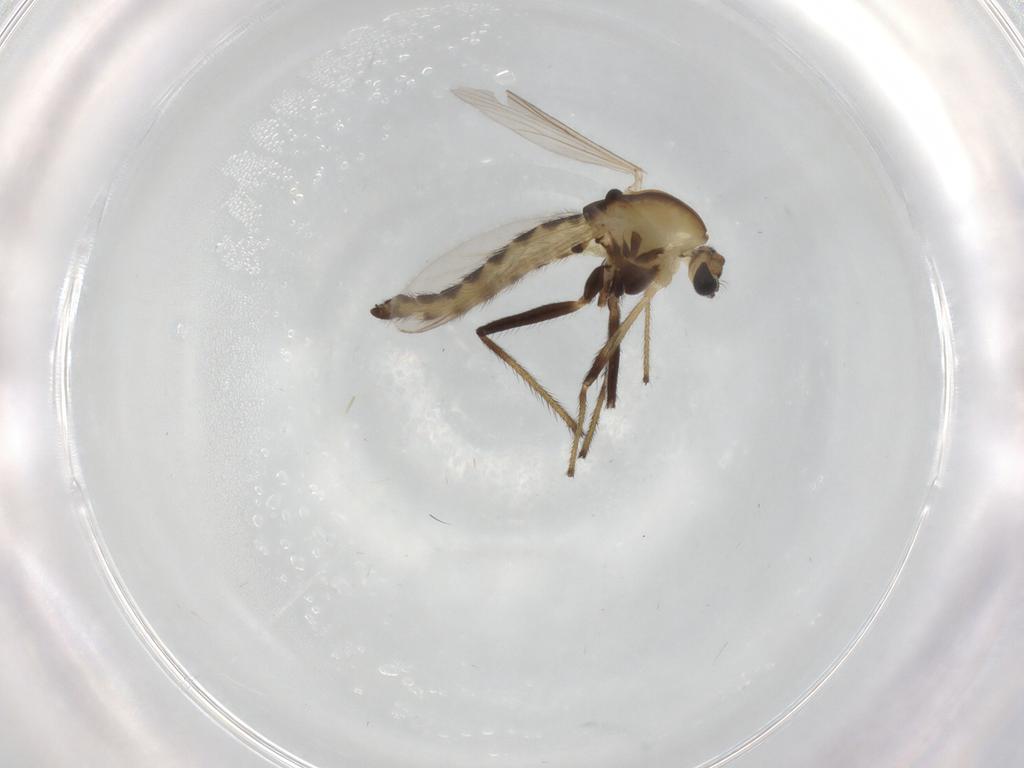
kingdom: Animalia
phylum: Arthropoda
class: Insecta
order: Diptera
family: Chironomidae
